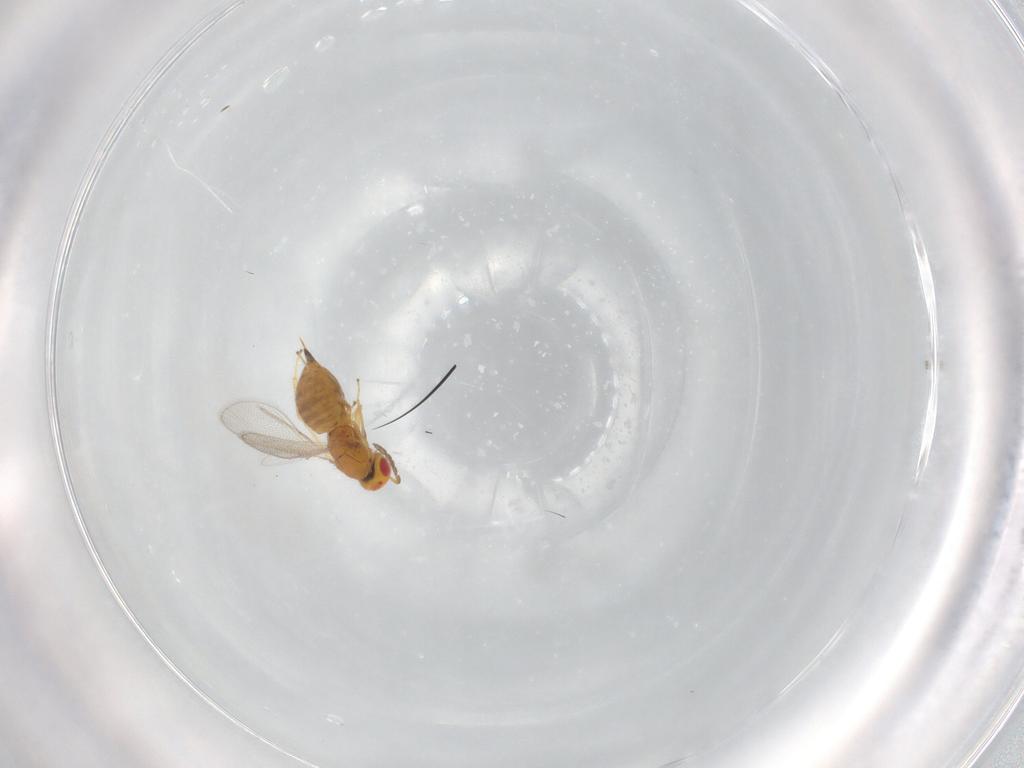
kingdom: Animalia
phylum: Arthropoda
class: Insecta
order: Hymenoptera
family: Eulophidae
